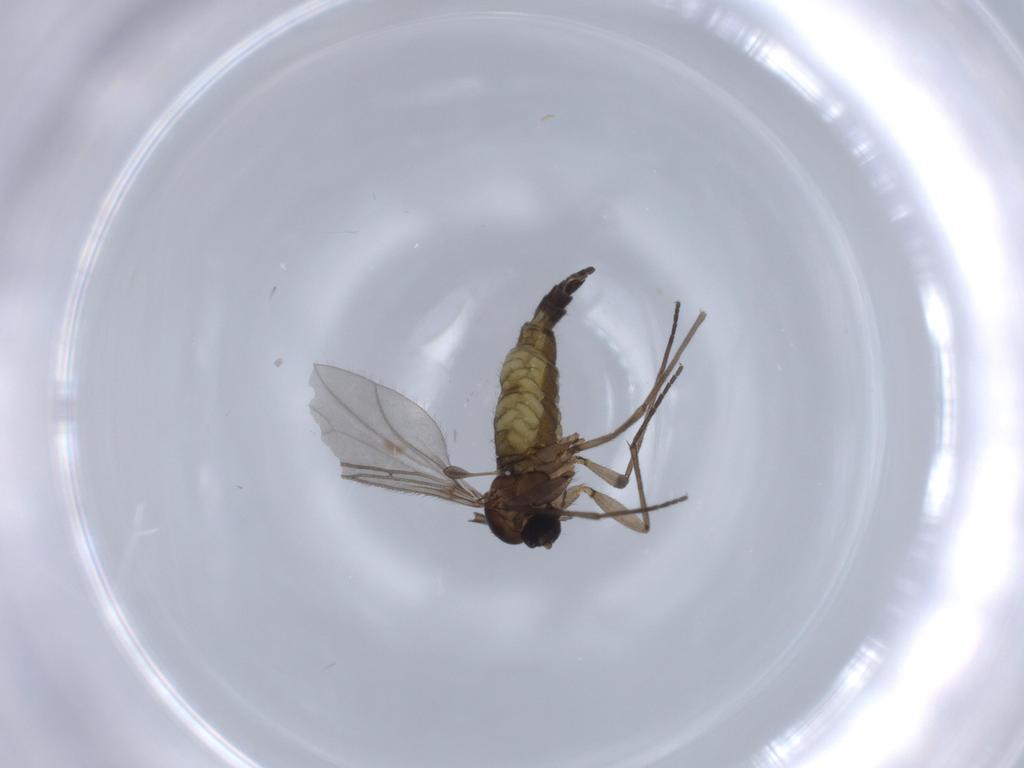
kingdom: Animalia
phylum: Arthropoda
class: Insecta
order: Diptera
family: Sciaridae
